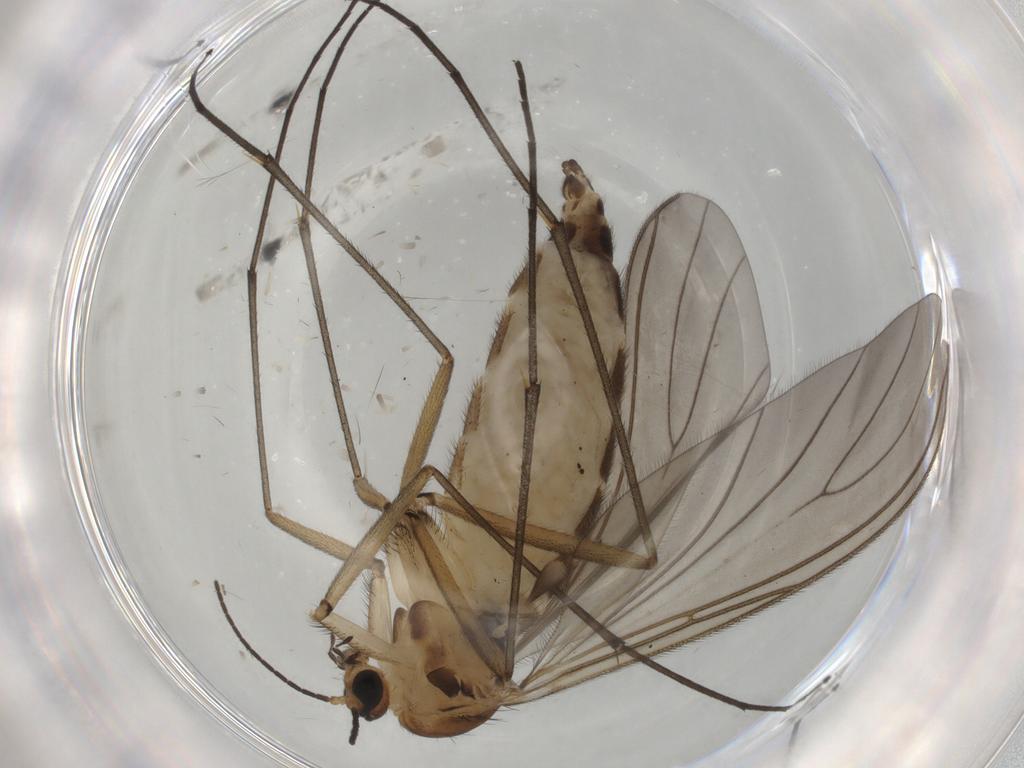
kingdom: Animalia
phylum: Arthropoda
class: Insecta
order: Diptera
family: Sciaridae
